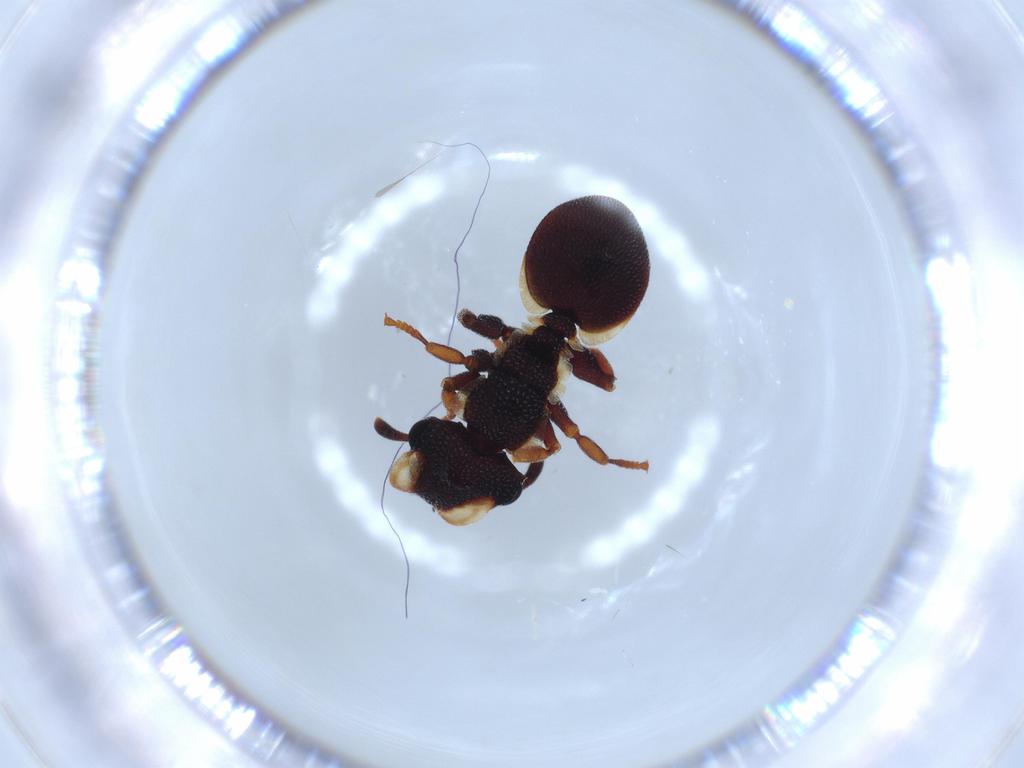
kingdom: Animalia
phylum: Arthropoda
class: Insecta
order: Hymenoptera
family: Formicidae
